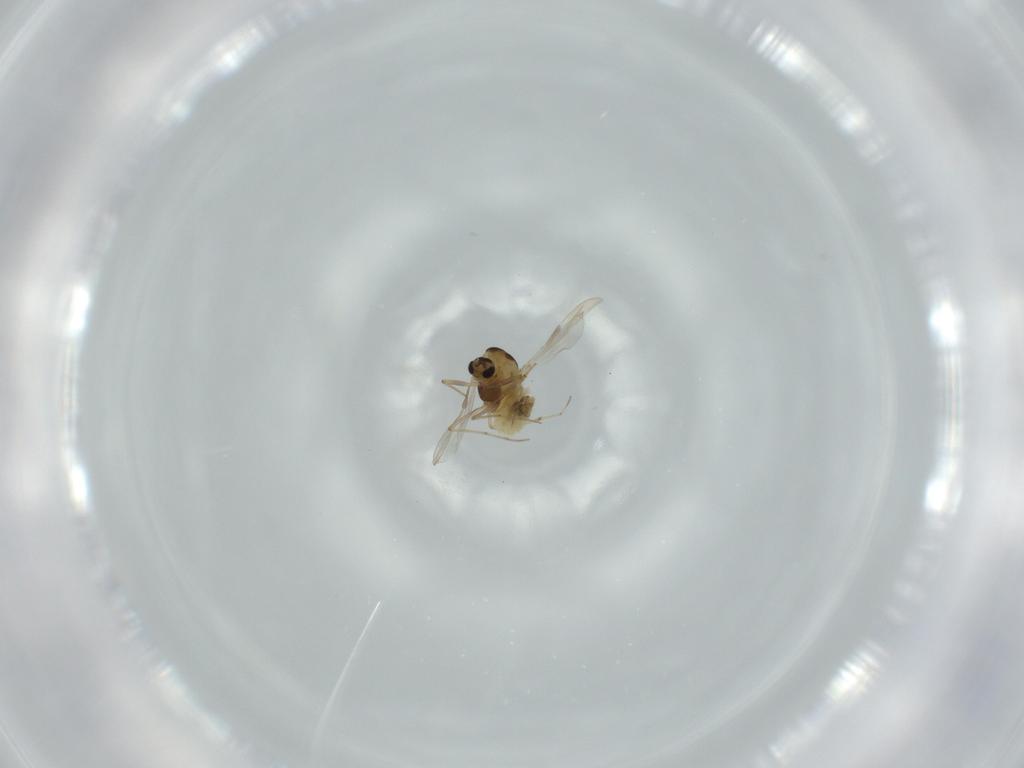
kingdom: Animalia
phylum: Arthropoda
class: Insecta
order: Diptera
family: Chironomidae
